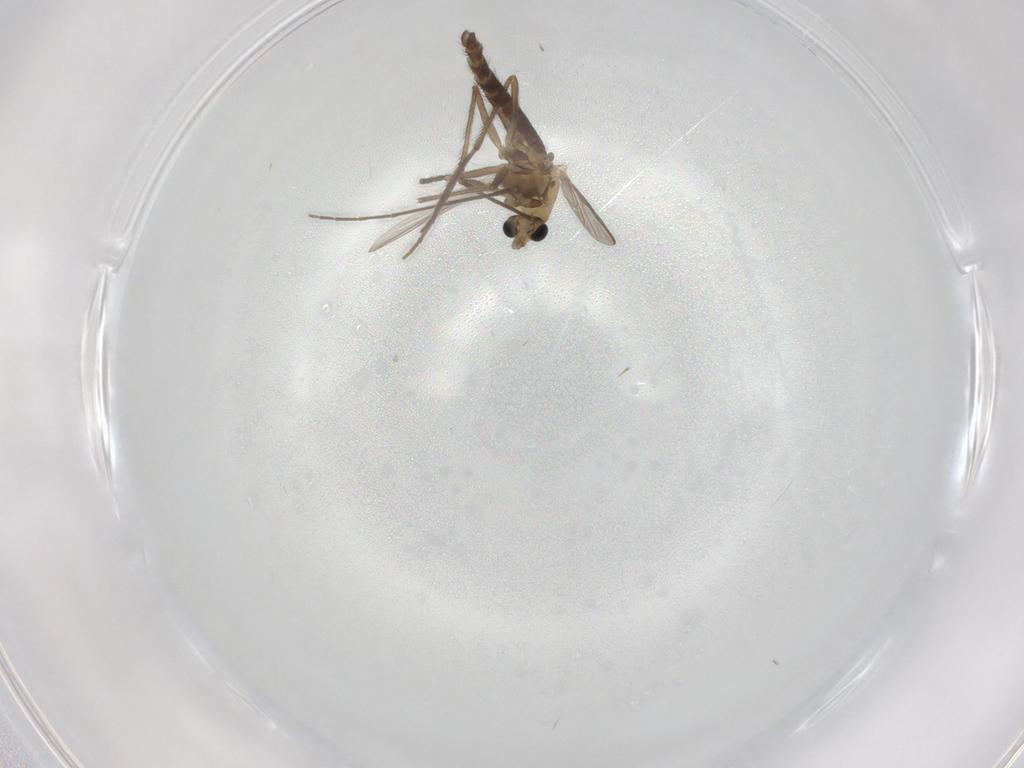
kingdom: Animalia
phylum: Arthropoda
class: Insecta
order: Diptera
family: Chironomidae
